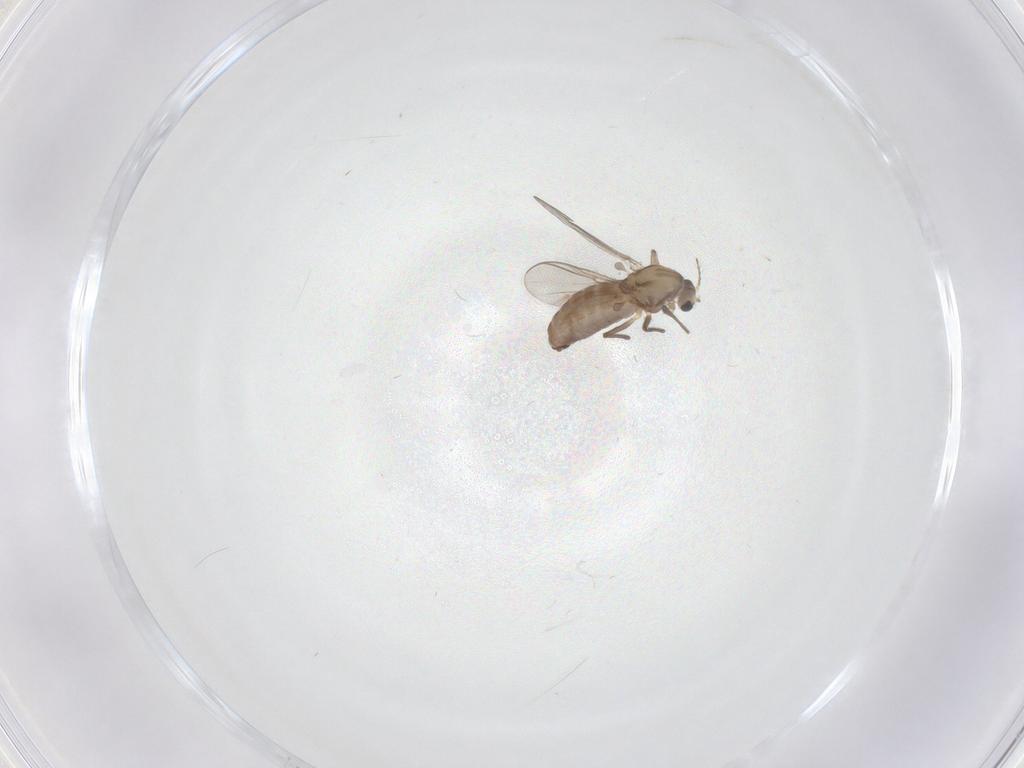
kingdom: Animalia
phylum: Arthropoda
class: Insecta
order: Diptera
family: Chironomidae
